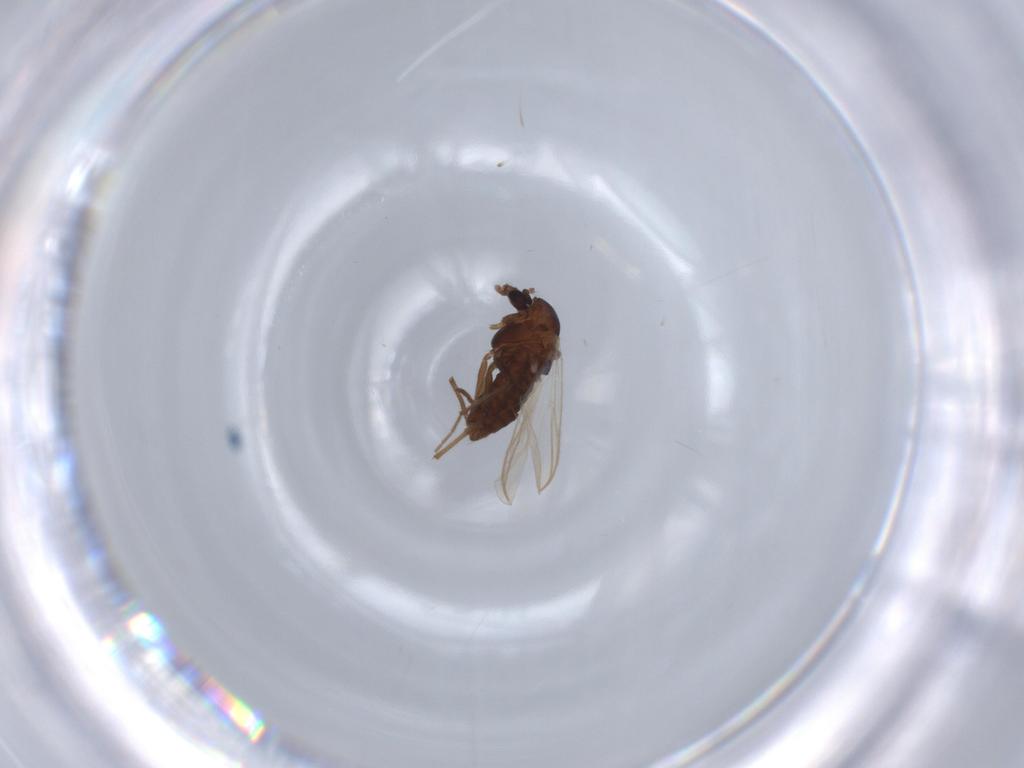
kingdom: Animalia
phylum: Arthropoda
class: Insecta
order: Diptera
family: Chironomidae
